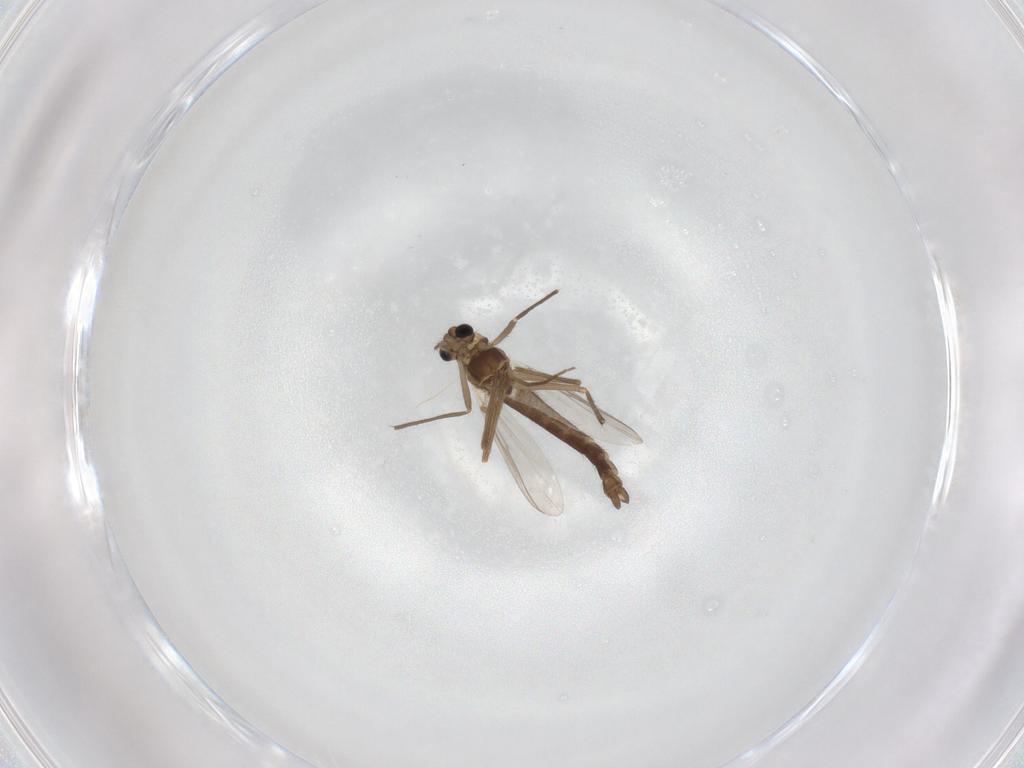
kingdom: Animalia
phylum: Arthropoda
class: Insecta
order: Diptera
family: Chironomidae
